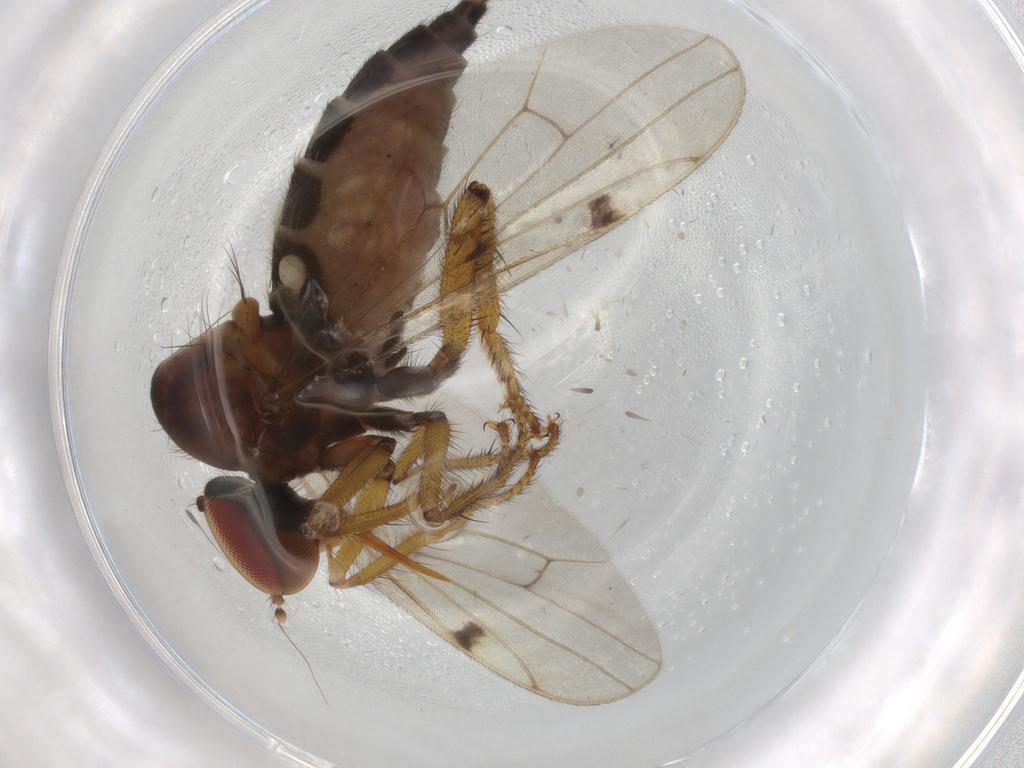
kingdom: Animalia
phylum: Arthropoda
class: Insecta
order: Diptera
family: Hybotidae
